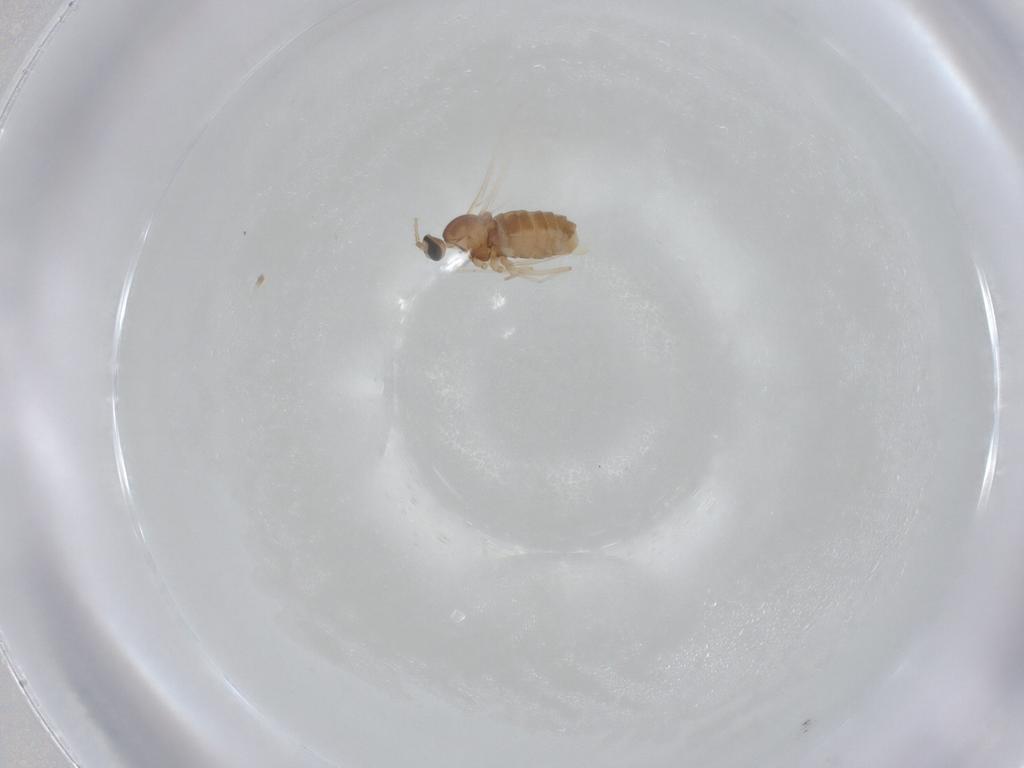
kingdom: Animalia
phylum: Arthropoda
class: Insecta
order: Diptera
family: Cecidomyiidae
